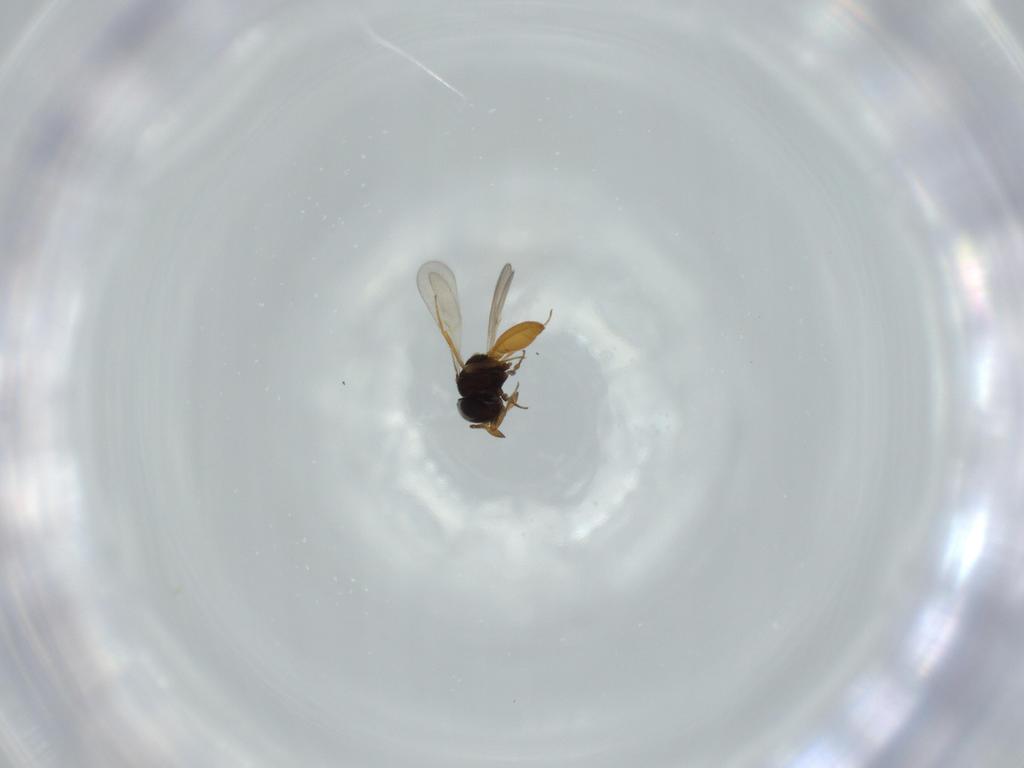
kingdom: Animalia
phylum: Arthropoda
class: Insecta
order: Hymenoptera
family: Scelionidae
